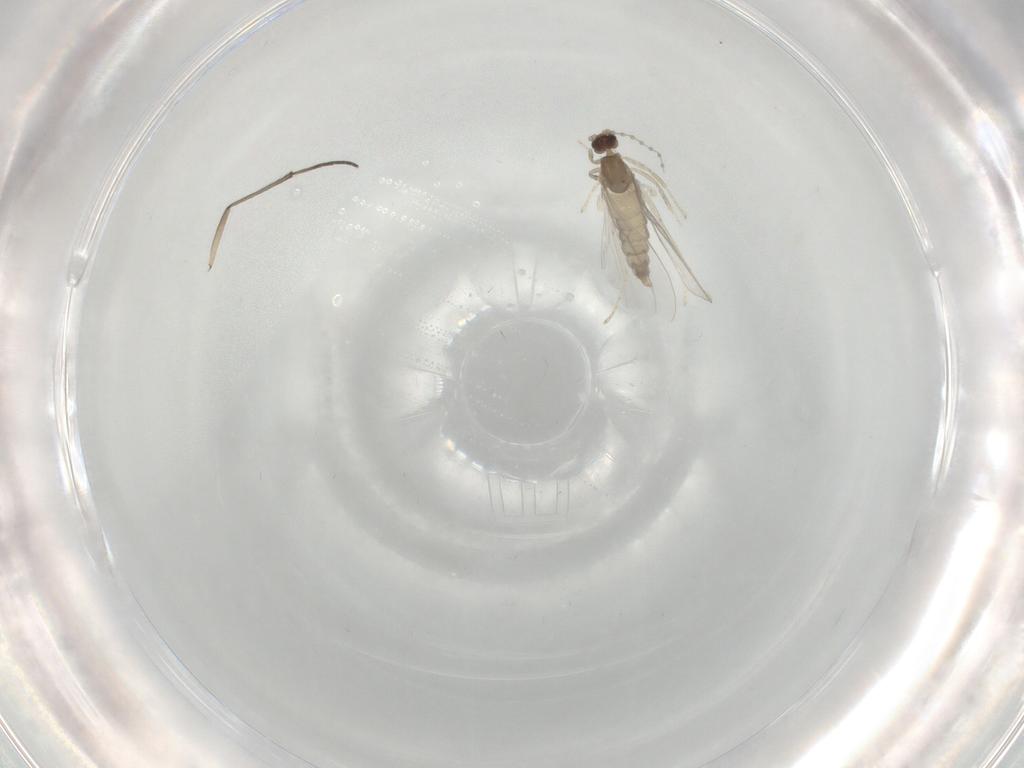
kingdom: Animalia
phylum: Arthropoda
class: Insecta
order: Diptera
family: Cecidomyiidae
